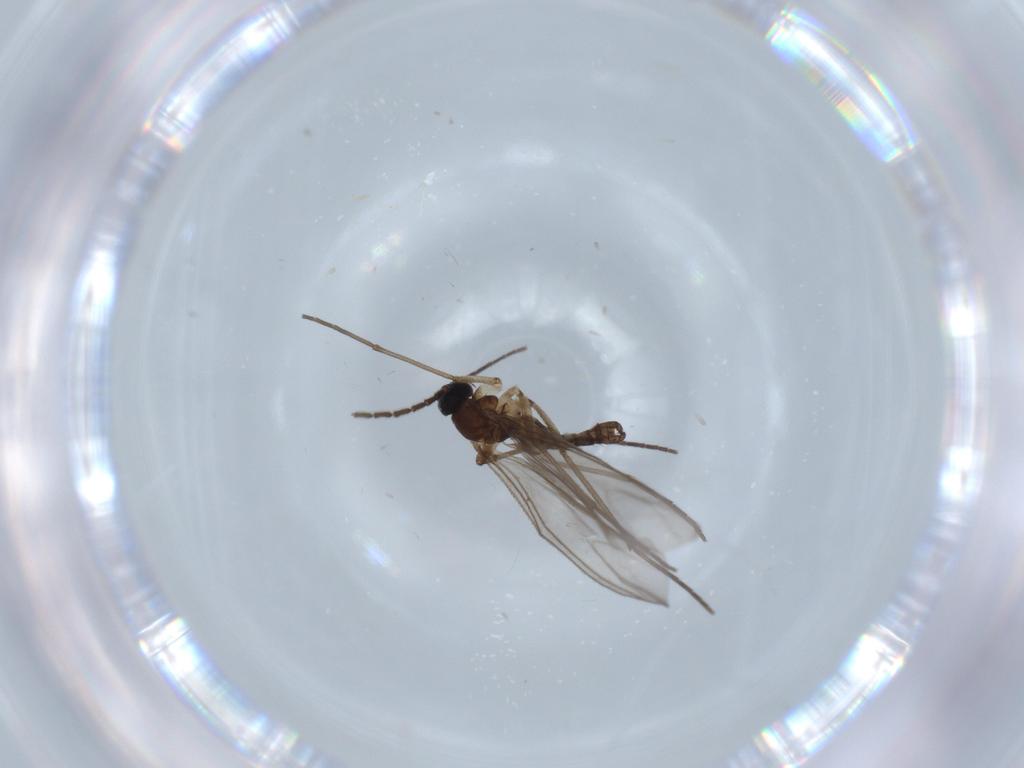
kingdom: Animalia
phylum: Arthropoda
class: Insecta
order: Diptera
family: Sciaridae
